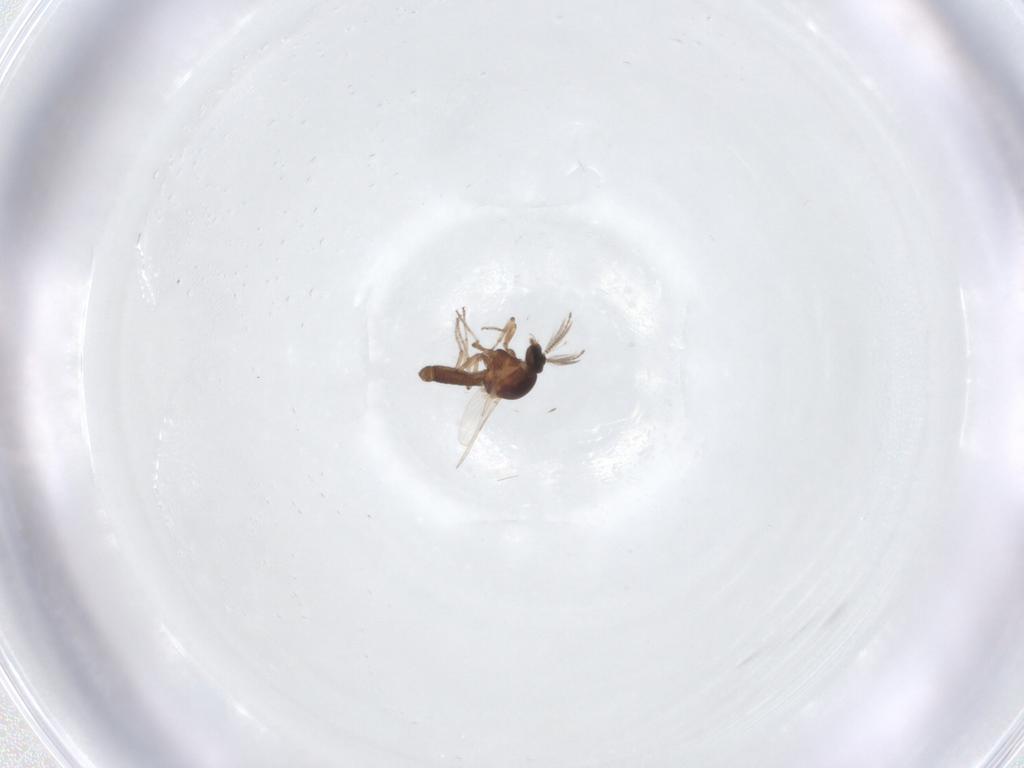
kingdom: Animalia
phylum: Arthropoda
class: Insecta
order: Diptera
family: Ceratopogonidae
